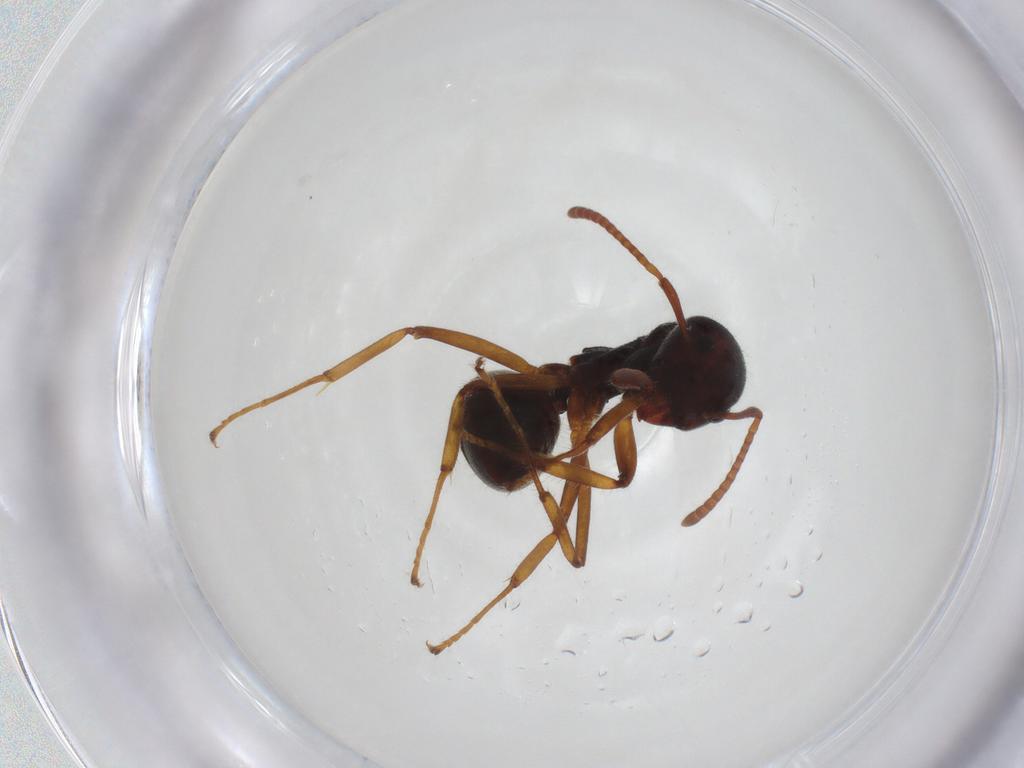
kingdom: Animalia
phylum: Arthropoda
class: Insecta
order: Hymenoptera
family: Formicidae
